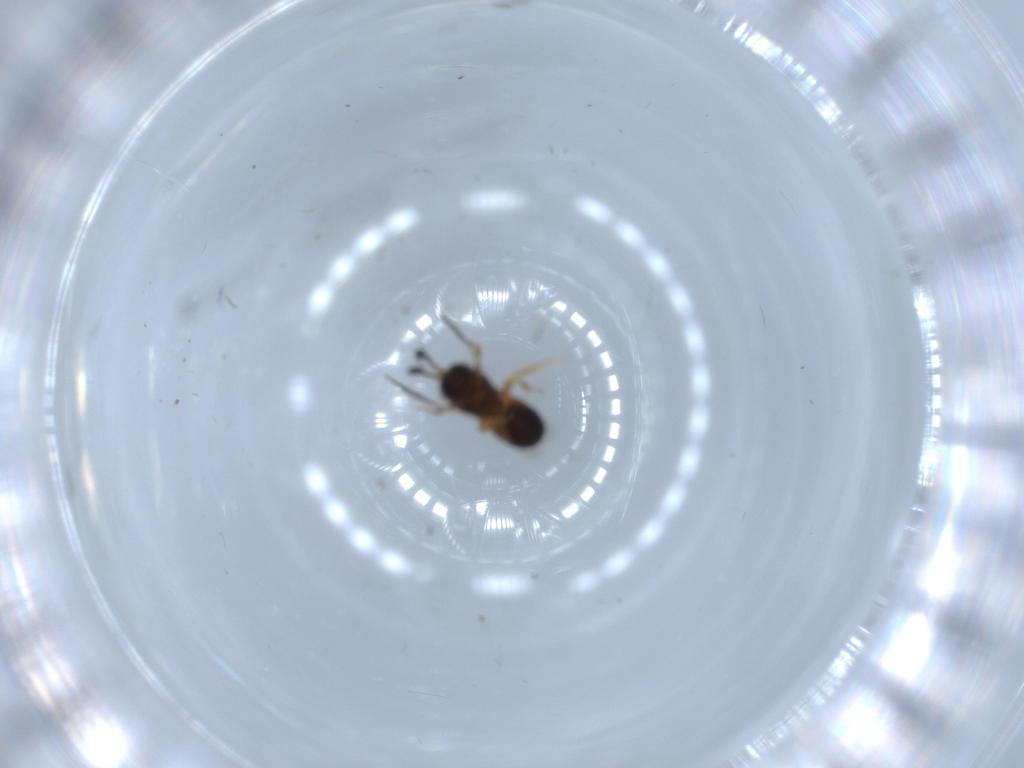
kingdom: Animalia
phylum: Arthropoda
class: Insecta
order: Hymenoptera
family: Scelionidae
